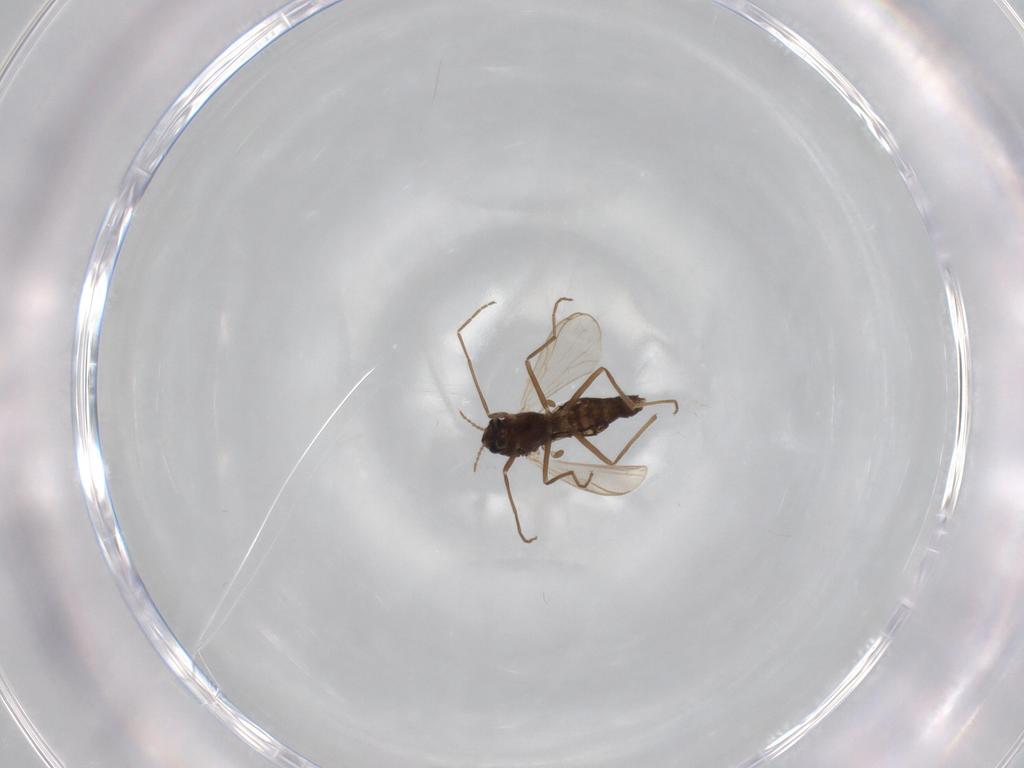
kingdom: Animalia
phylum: Arthropoda
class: Insecta
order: Diptera
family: Chironomidae
